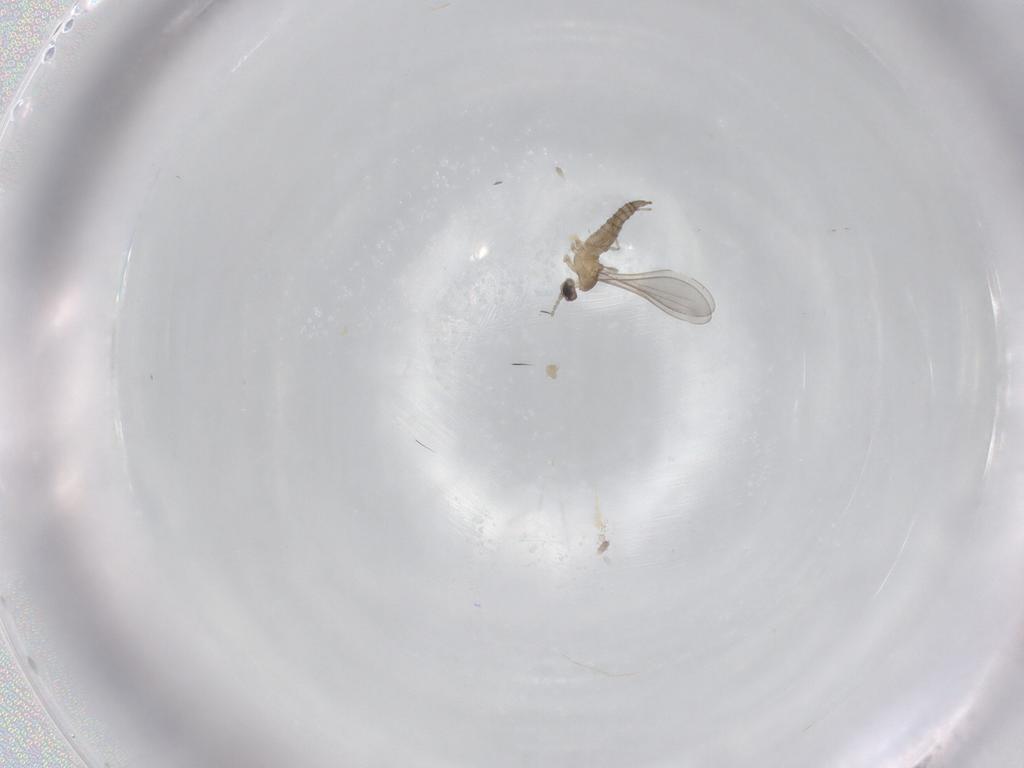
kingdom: Animalia
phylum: Arthropoda
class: Insecta
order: Diptera
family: Cecidomyiidae
